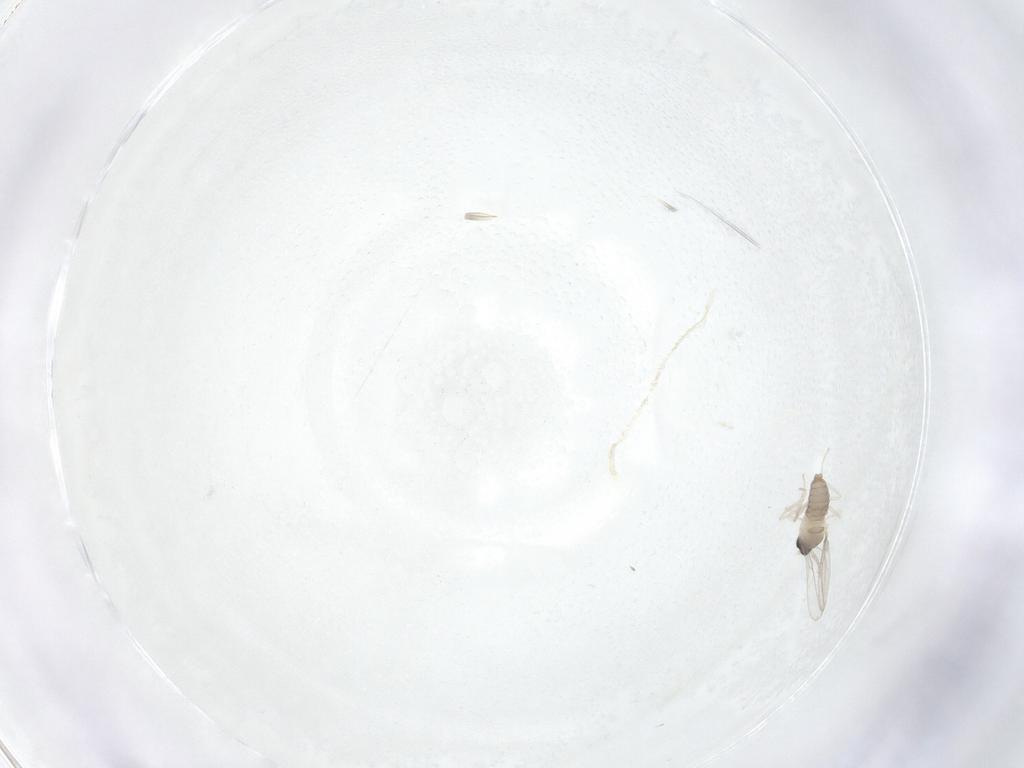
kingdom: Animalia
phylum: Arthropoda
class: Insecta
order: Diptera
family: Cecidomyiidae
